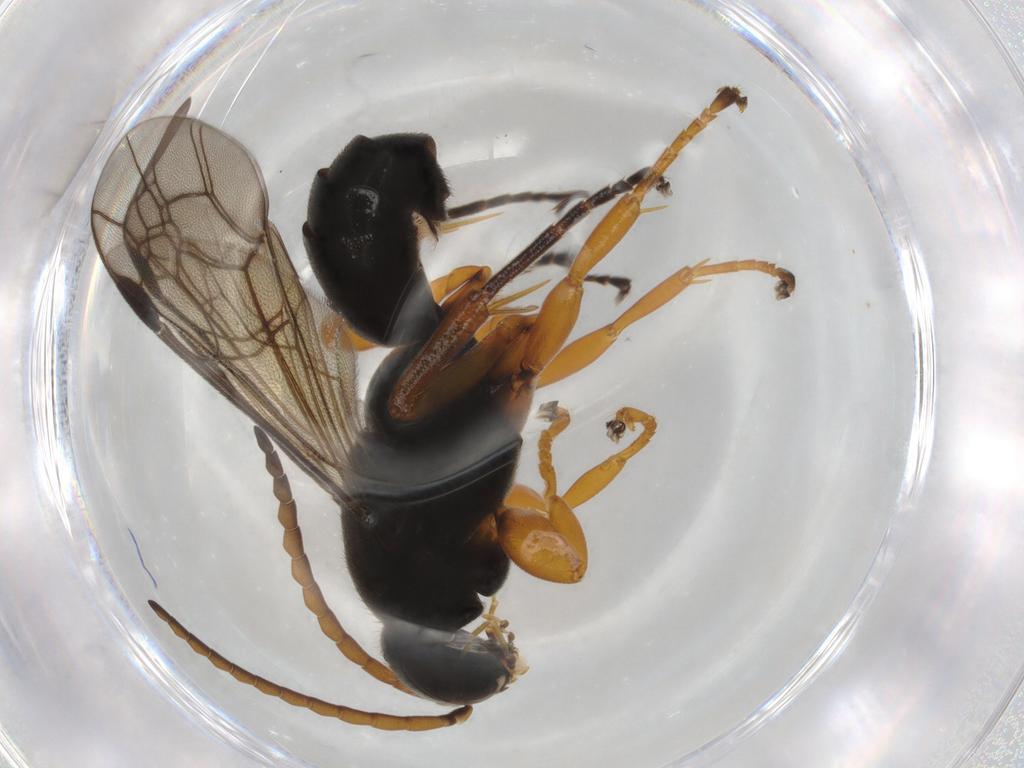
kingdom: Animalia
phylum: Arthropoda
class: Insecta
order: Hymenoptera
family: Pompilidae
